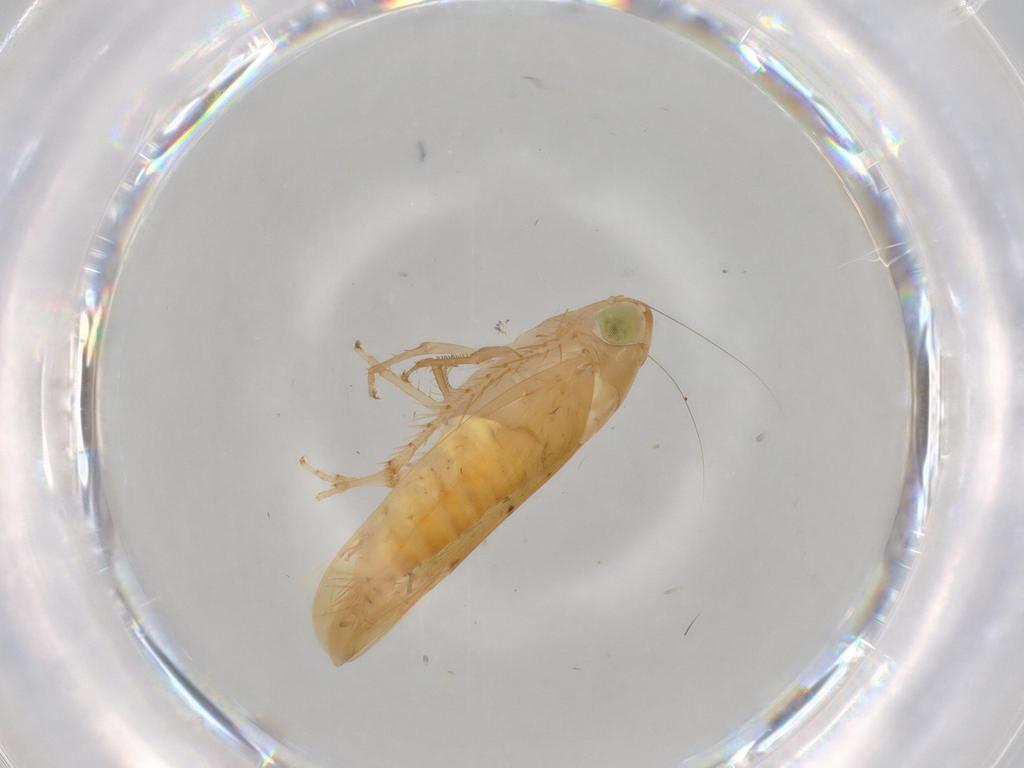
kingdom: Animalia
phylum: Arthropoda
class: Insecta
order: Hemiptera
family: Cicadellidae
